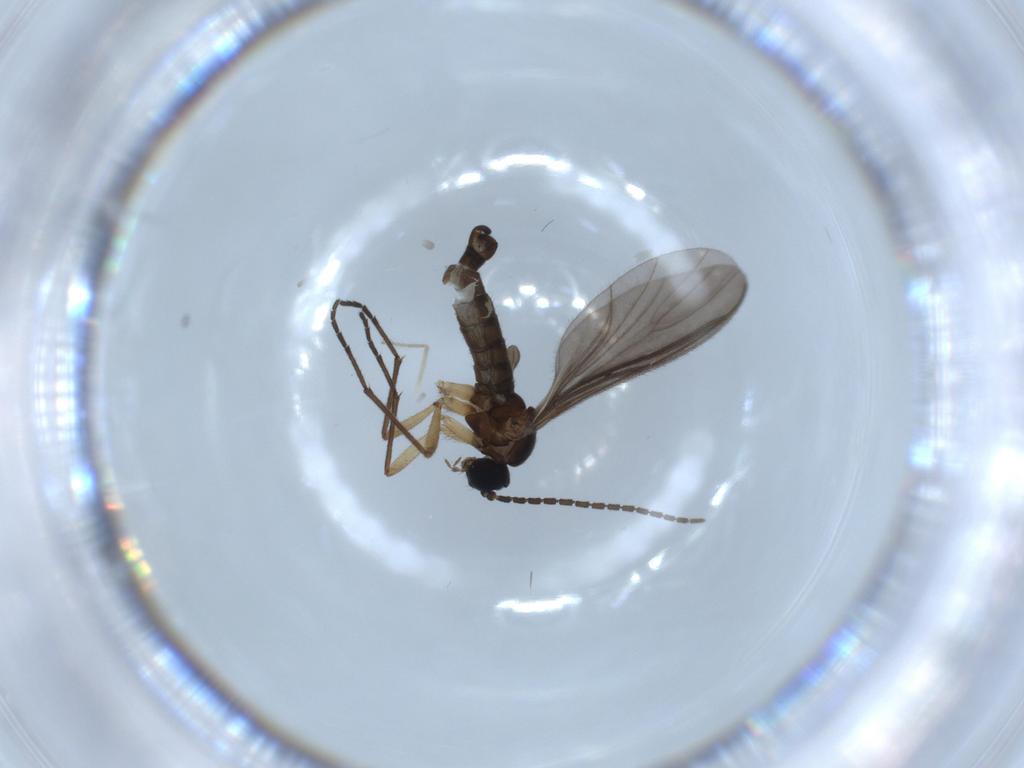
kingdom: Animalia
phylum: Arthropoda
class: Insecta
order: Diptera
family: Sciaridae
